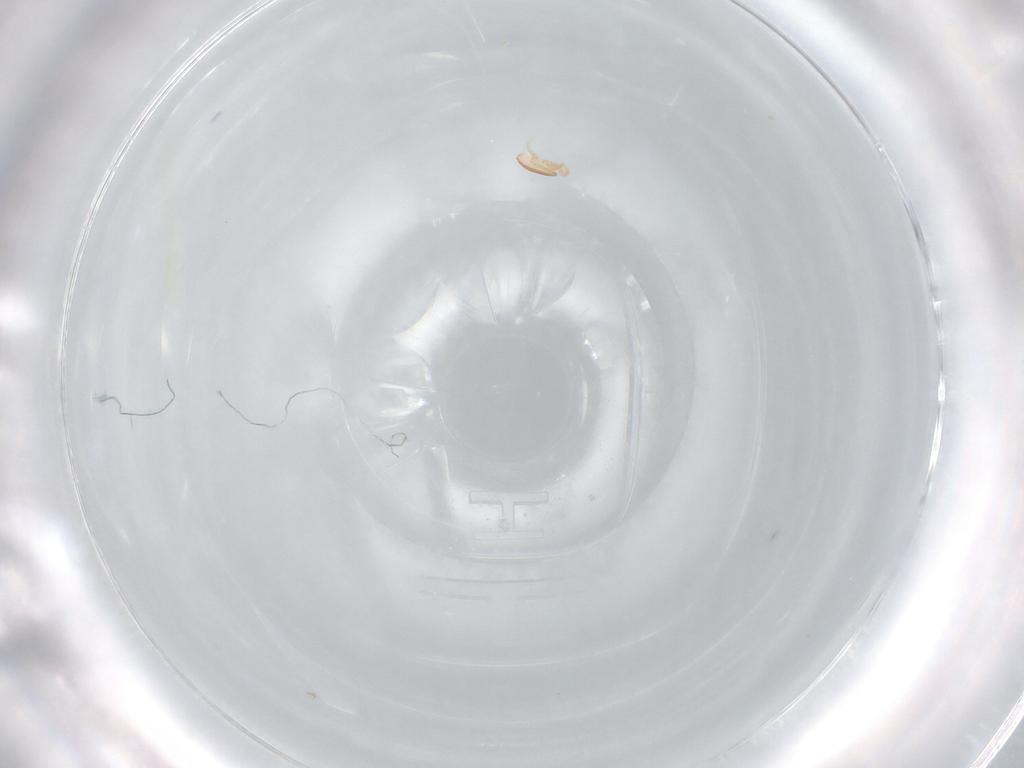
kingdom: Animalia
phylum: Arthropoda
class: Arachnida
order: Mesostigmata
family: Ascidae
